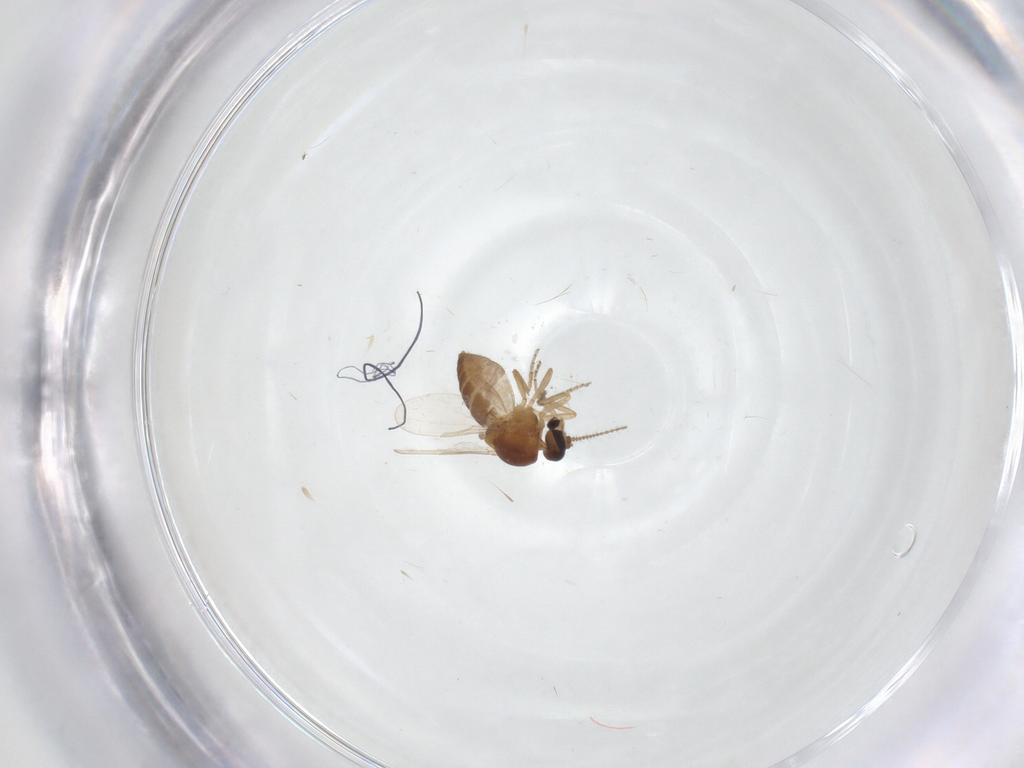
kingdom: Animalia
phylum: Arthropoda
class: Insecta
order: Diptera
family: Ceratopogonidae
